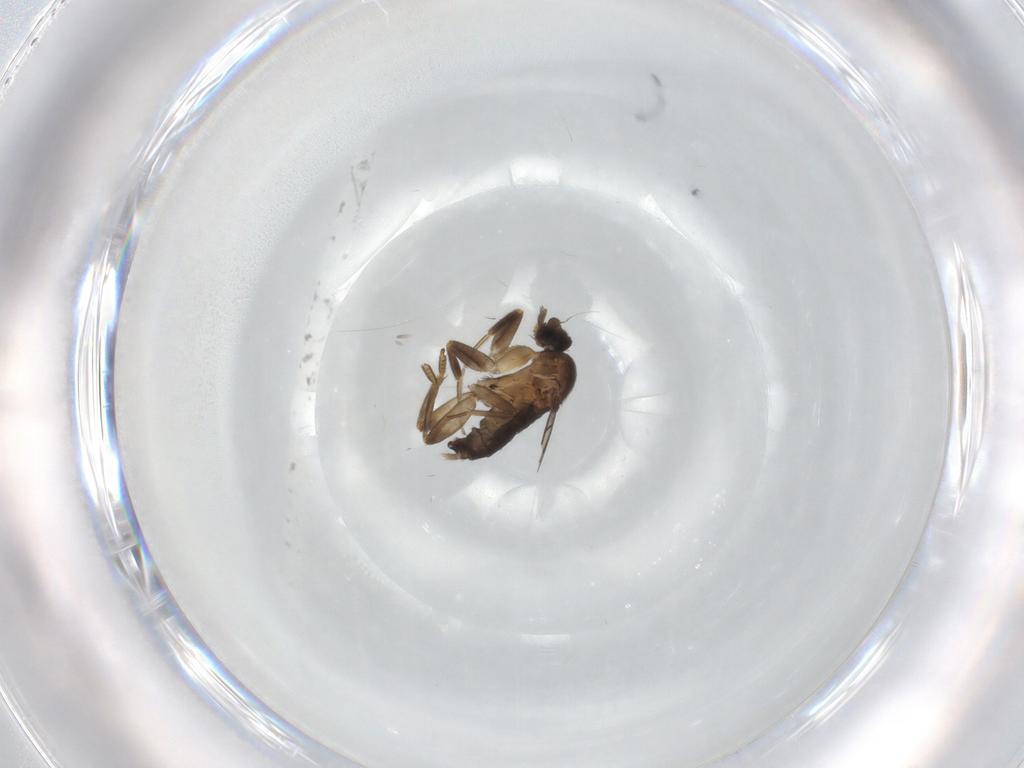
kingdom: Animalia
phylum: Arthropoda
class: Insecta
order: Diptera
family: Phoridae
